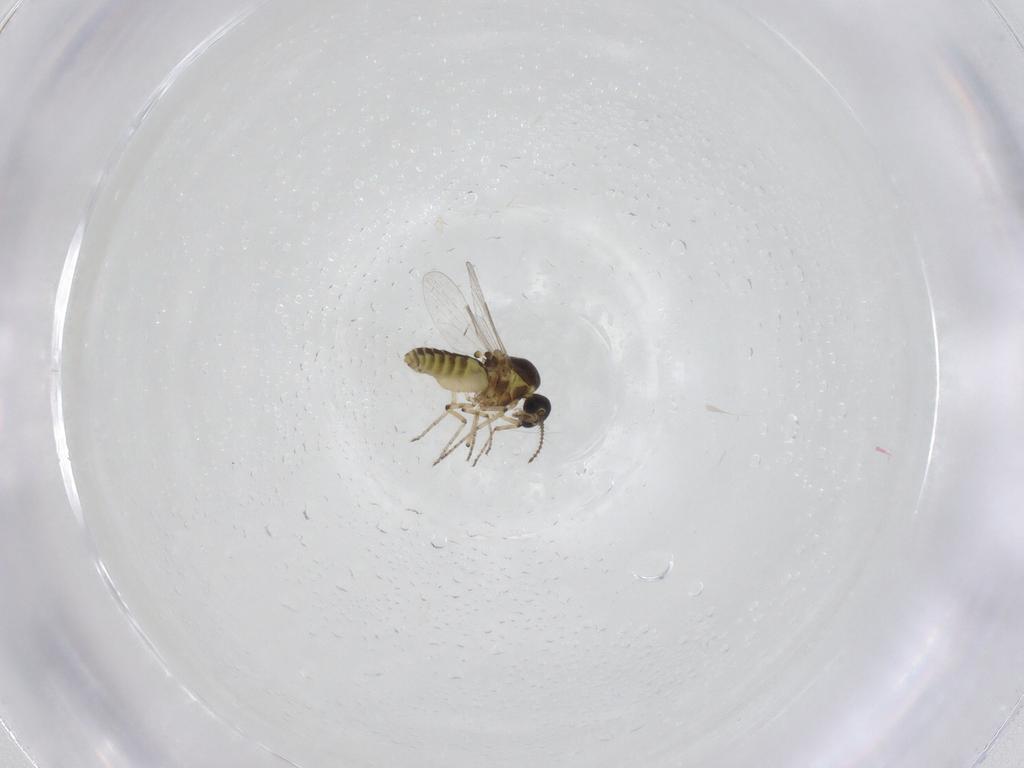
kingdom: Animalia
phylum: Arthropoda
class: Insecta
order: Diptera
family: Ceratopogonidae
